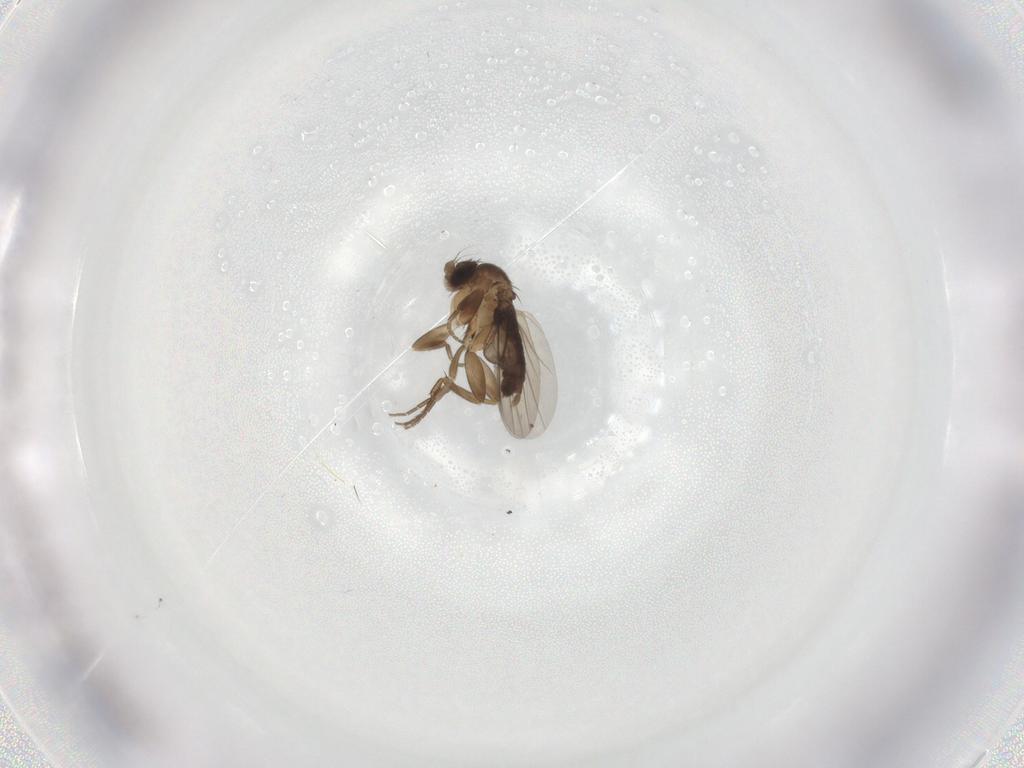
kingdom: Animalia
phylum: Arthropoda
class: Insecta
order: Diptera
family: Phoridae
